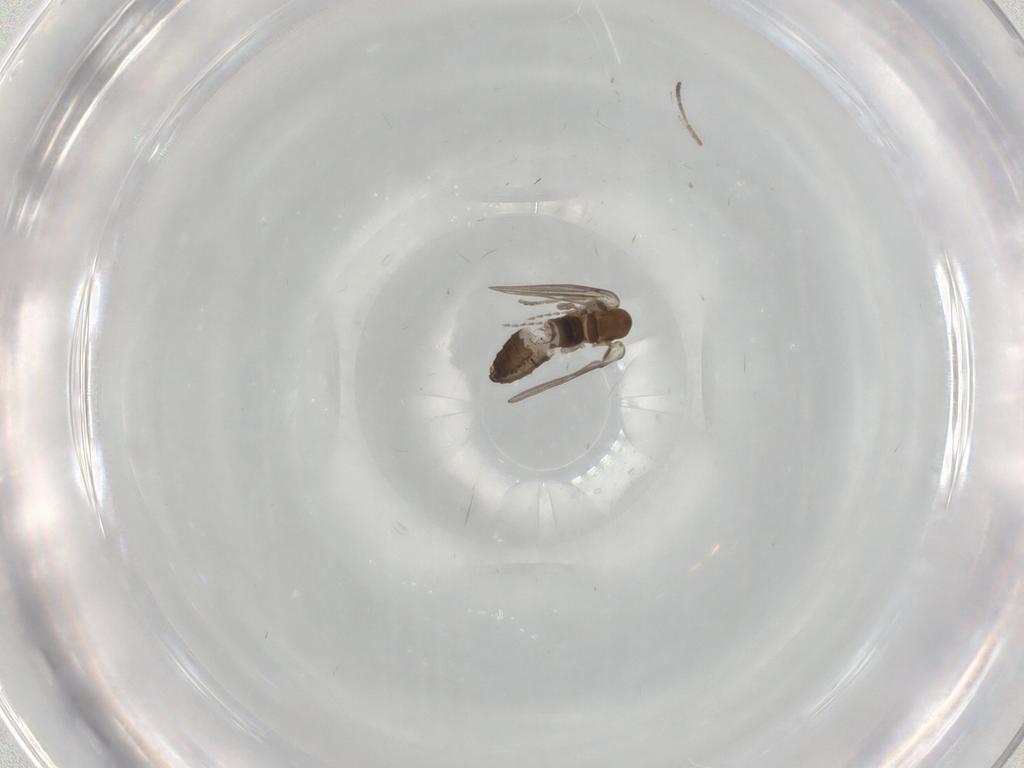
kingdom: Animalia
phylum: Arthropoda
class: Insecta
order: Diptera
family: Psychodidae
